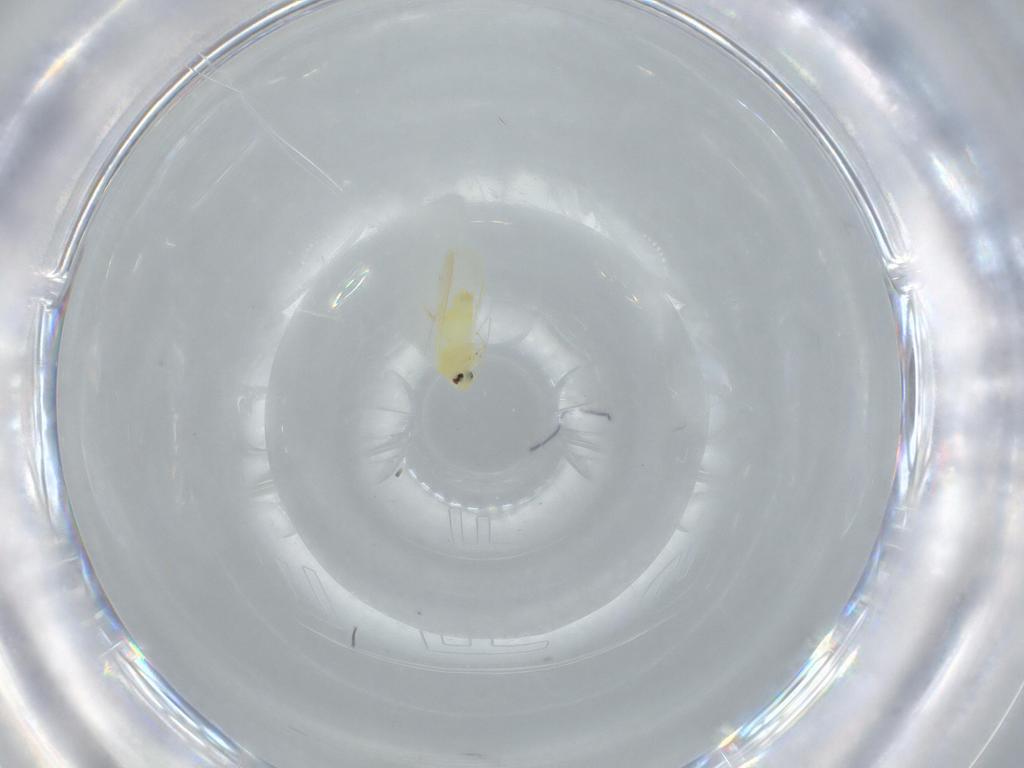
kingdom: Animalia
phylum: Arthropoda
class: Insecta
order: Hemiptera
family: Aleyrodidae
